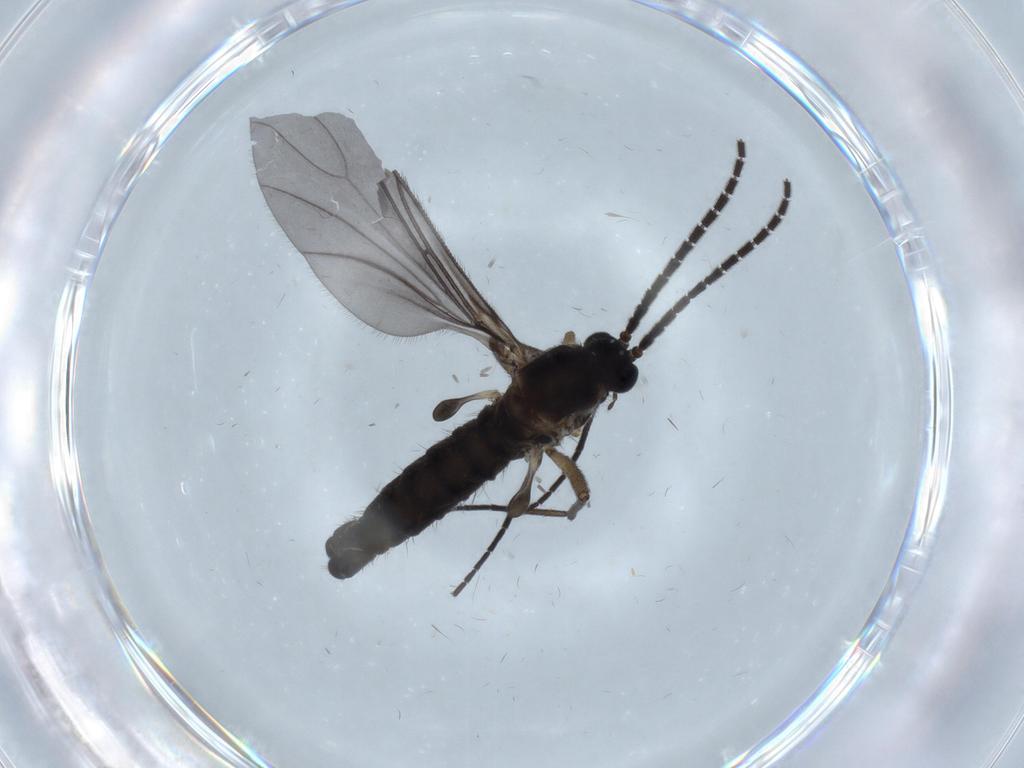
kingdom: Animalia
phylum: Arthropoda
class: Insecta
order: Diptera
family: Sciaridae
